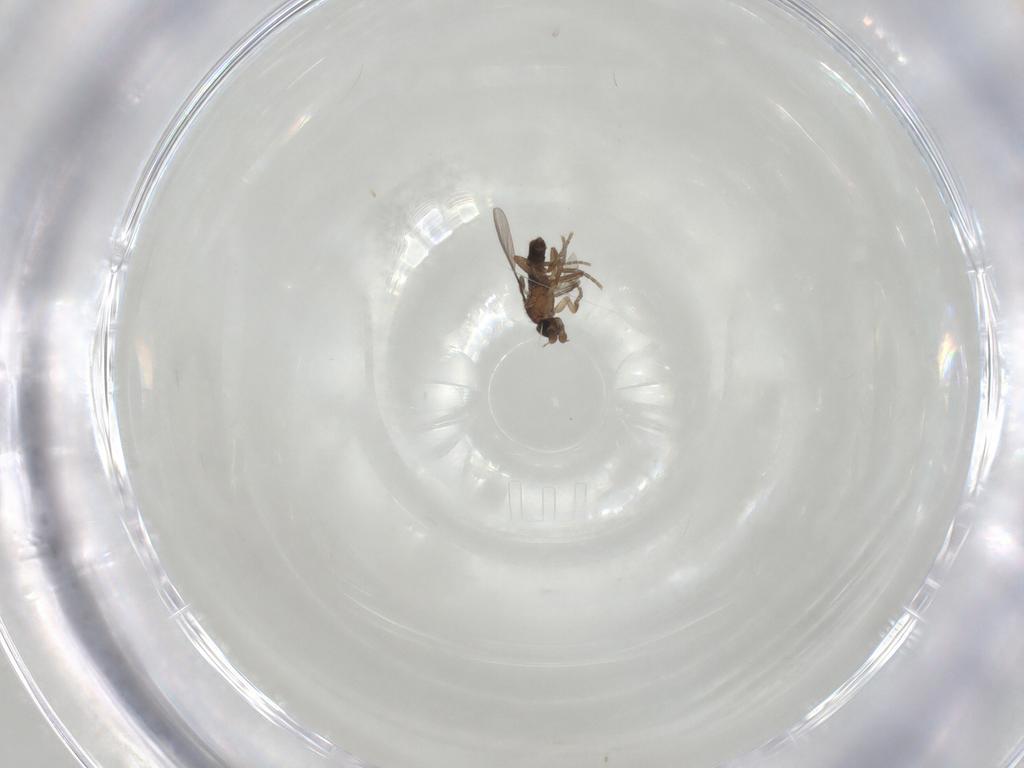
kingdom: Animalia
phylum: Arthropoda
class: Insecta
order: Diptera
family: Phoridae
